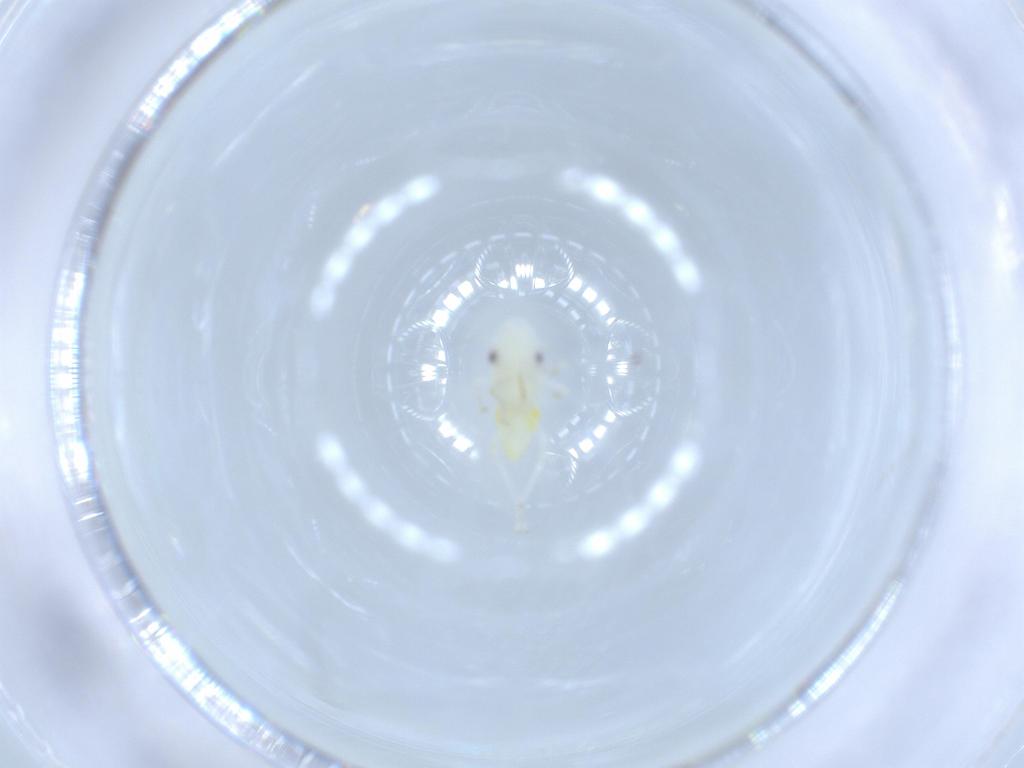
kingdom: Animalia
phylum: Arthropoda
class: Insecta
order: Hemiptera
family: Cicadellidae
